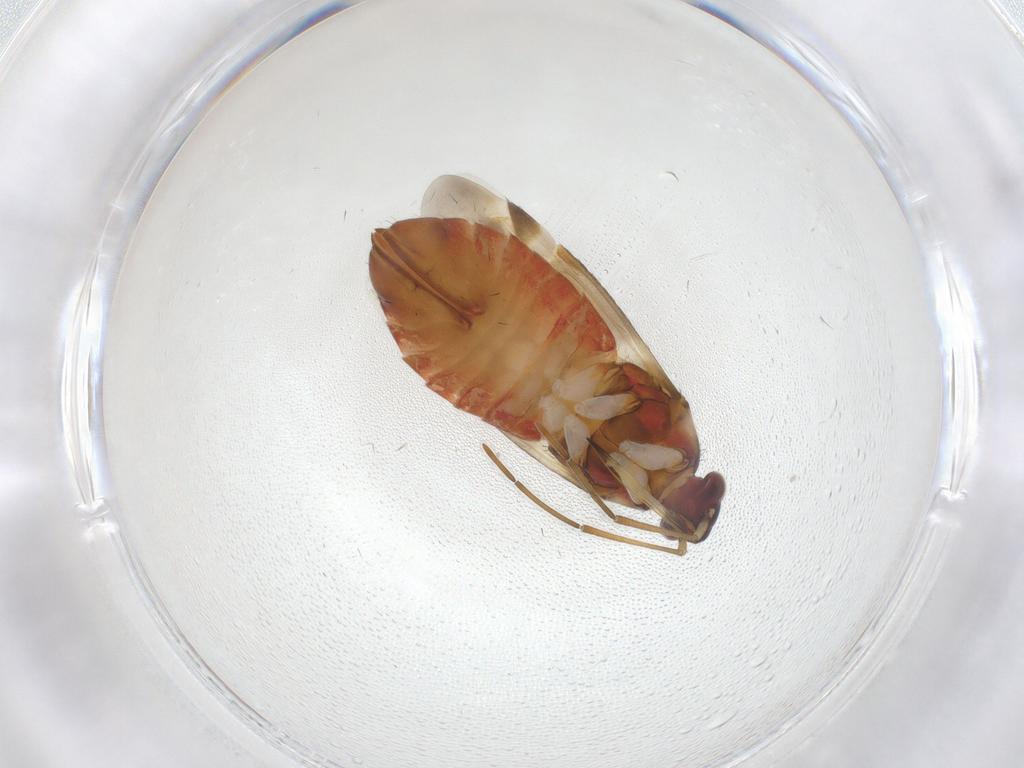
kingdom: Animalia
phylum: Arthropoda
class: Insecta
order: Hemiptera
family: Miridae
